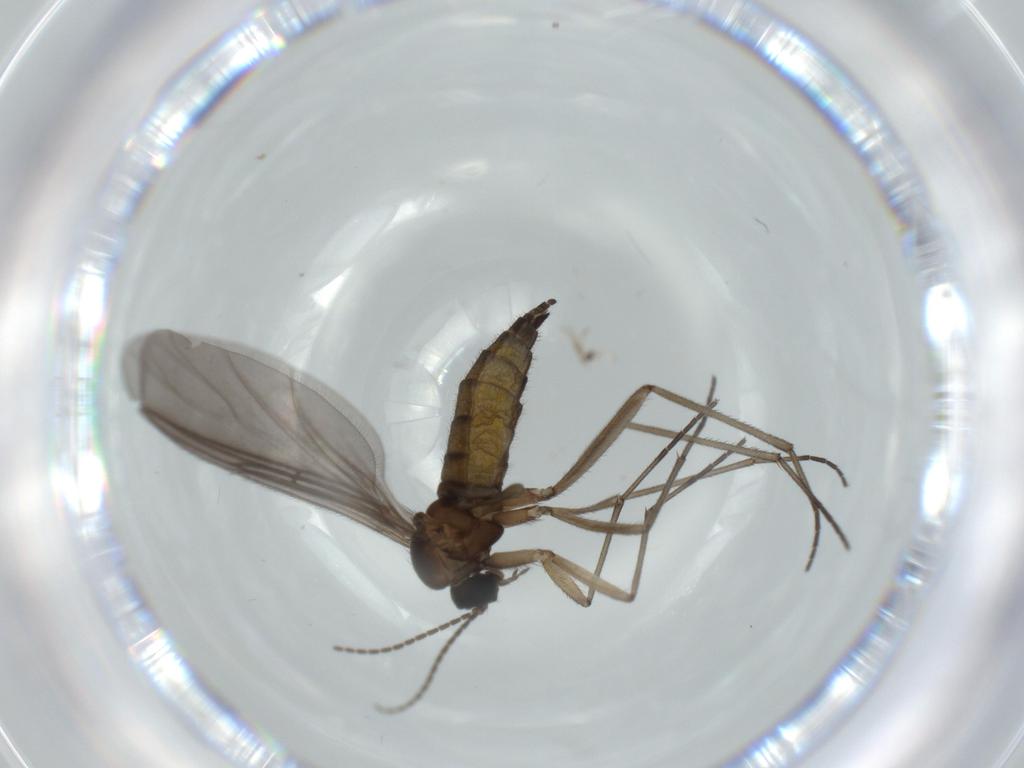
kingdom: Animalia
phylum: Arthropoda
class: Insecta
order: Diptera
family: Sciaridae
